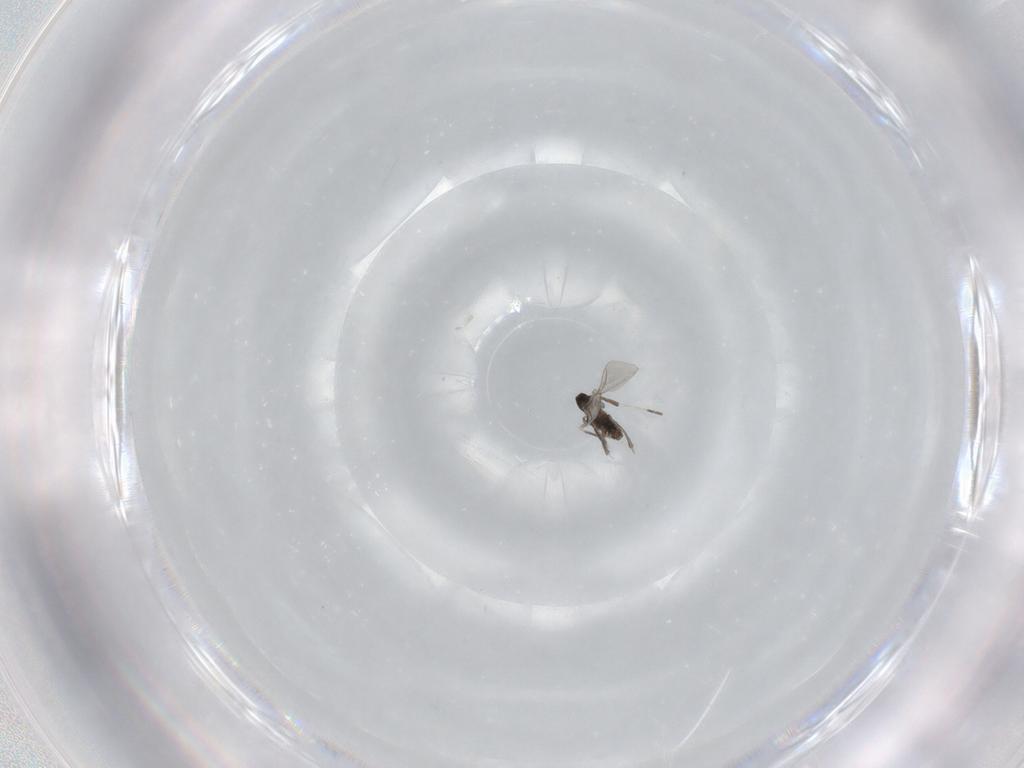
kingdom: Animalia
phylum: Arthropoda
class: Insecta
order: Diptera
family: Cecidomyiidae
